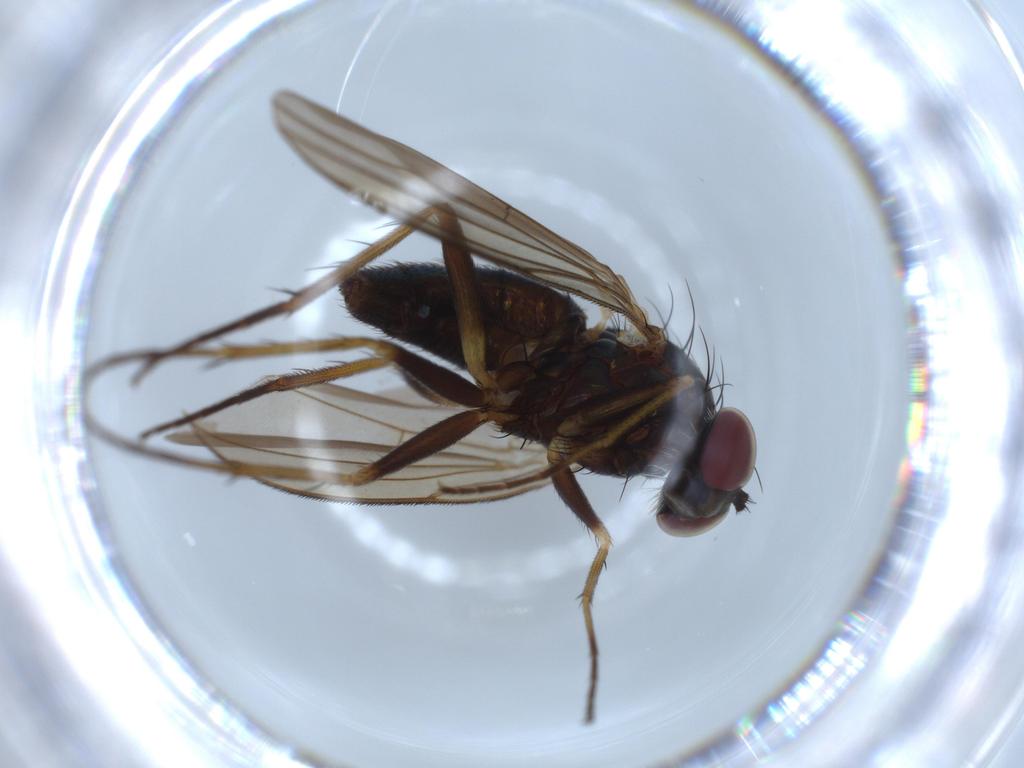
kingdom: Animalia
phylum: Arthropoda
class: Insecta
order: Diptera
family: Dolichopodidae
